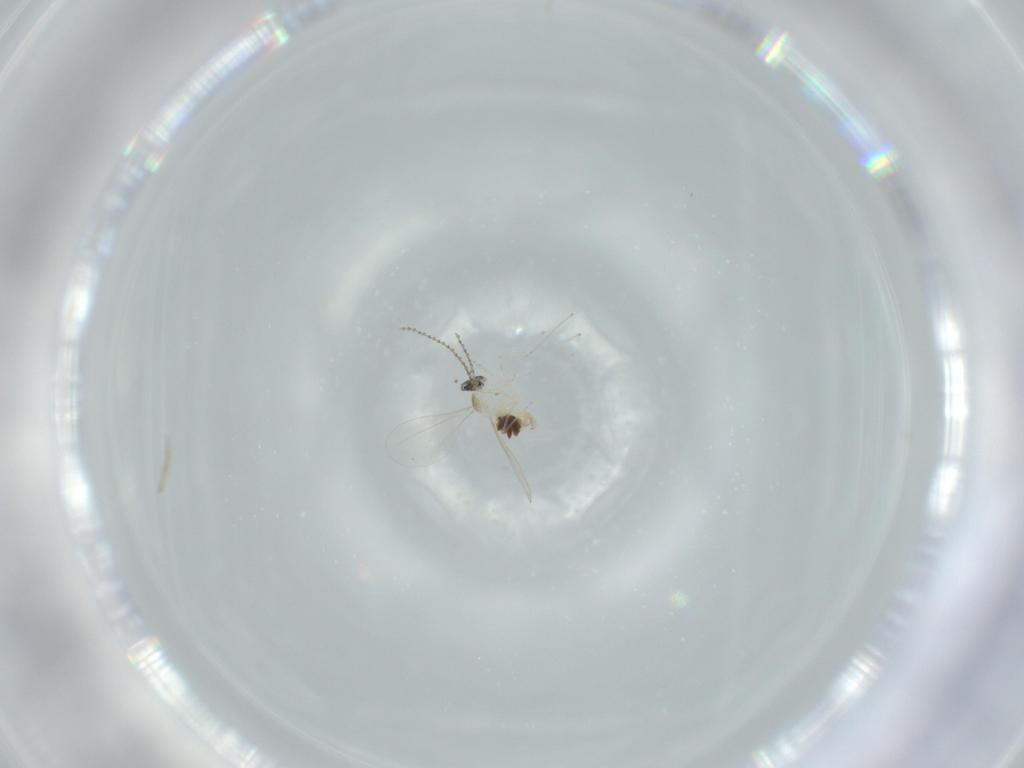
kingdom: Animalia
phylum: Arthropoda
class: Insecta
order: Diptera
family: Cecidomyiidae
